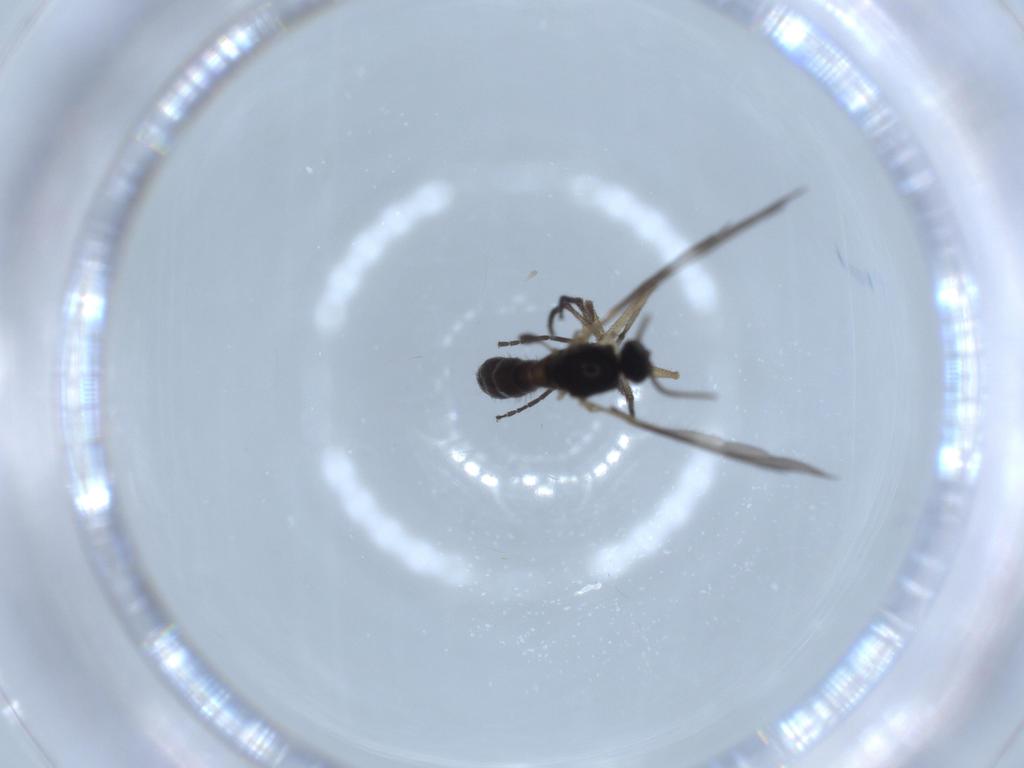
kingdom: Animalia
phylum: Arthropoda
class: Insecta
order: Diptera
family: Sciaridae
